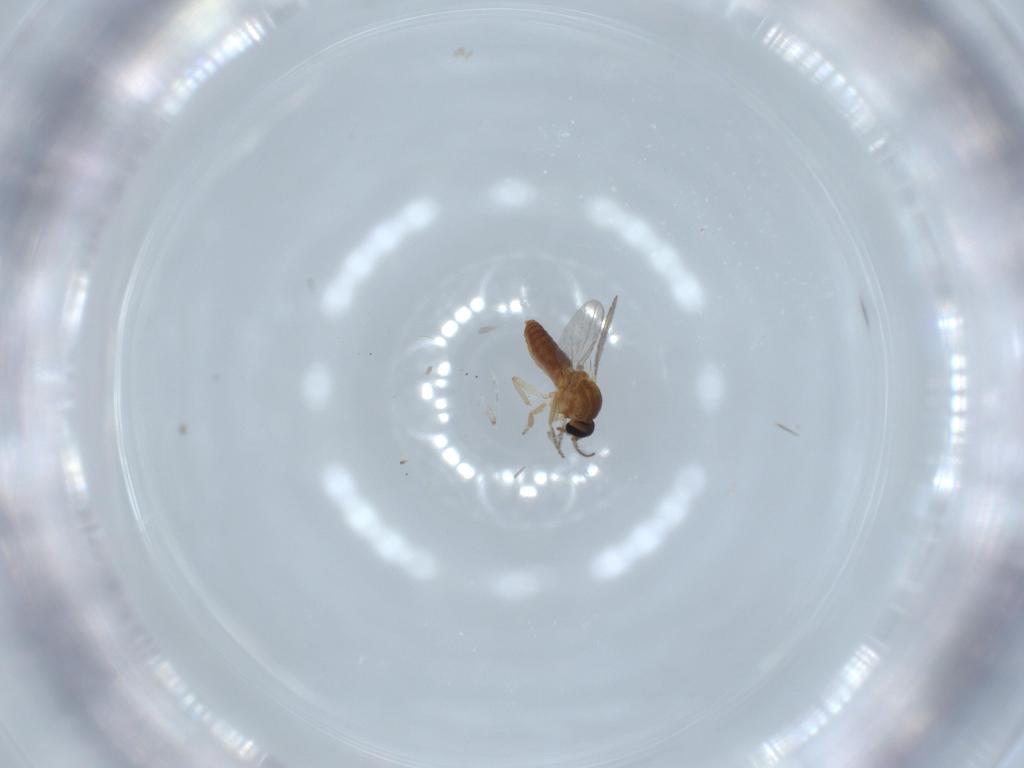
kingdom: Animalia
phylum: Arthropoda
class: Insecta
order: Diptera
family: Ceratopogonidae
